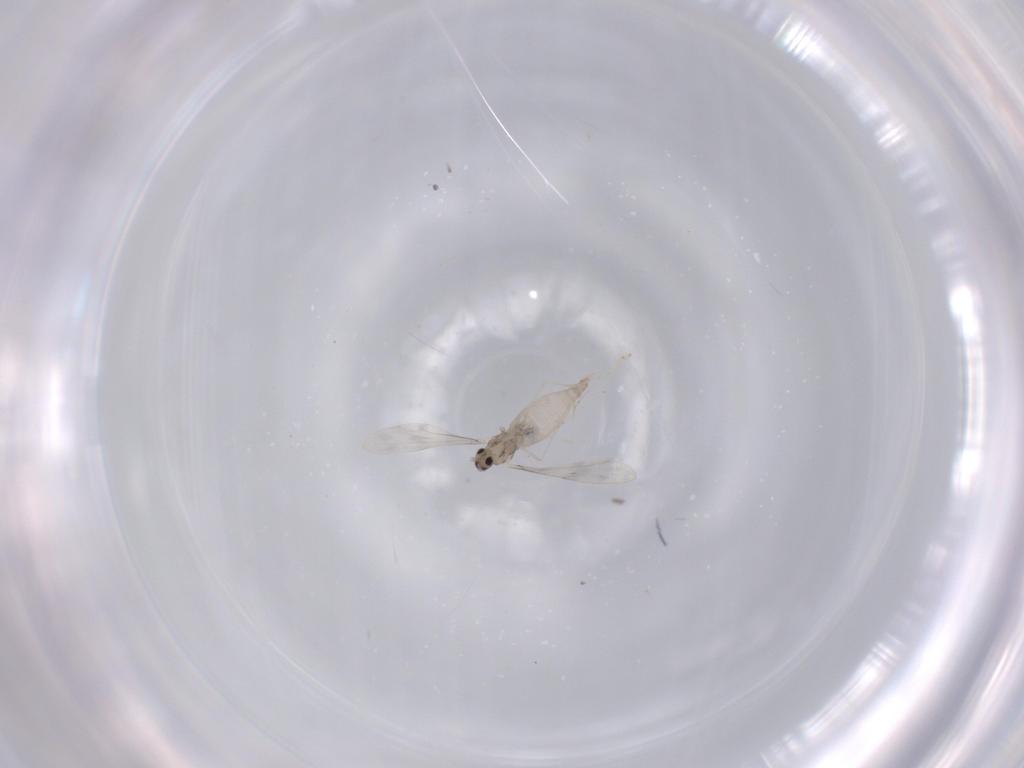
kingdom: Animalia
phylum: Arthropoda
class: Insecta
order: Diptera
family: Cecidomyiidae
